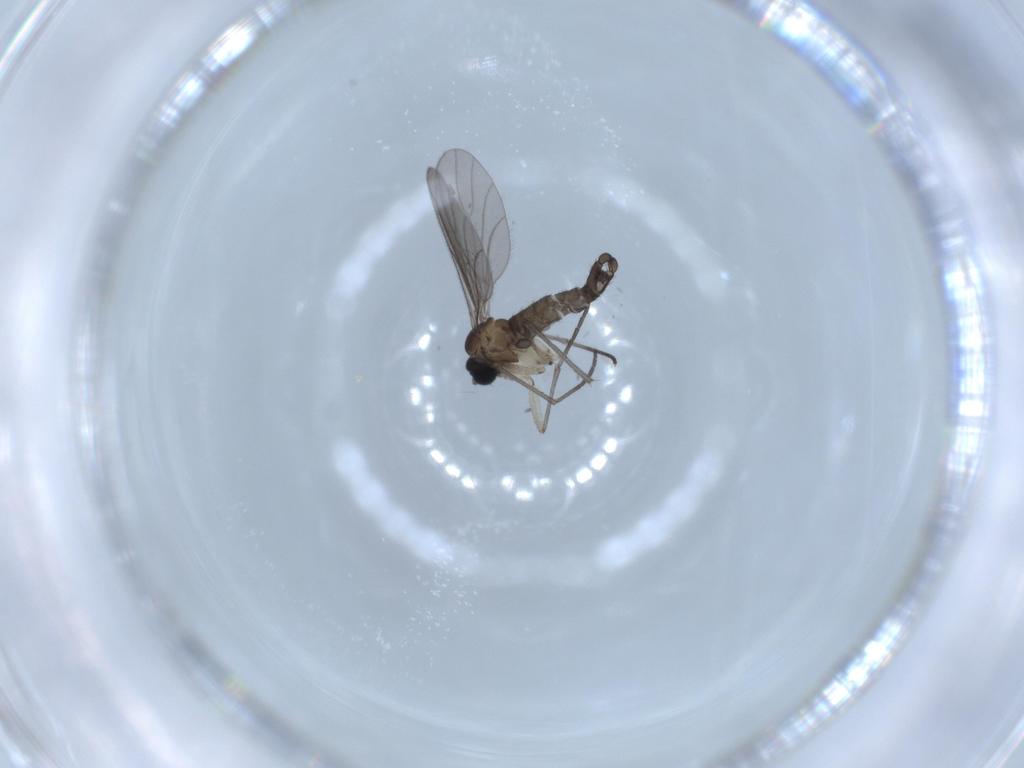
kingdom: Animalia
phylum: Arthropoda
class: Insecta
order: Diptera
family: Sciaridae
